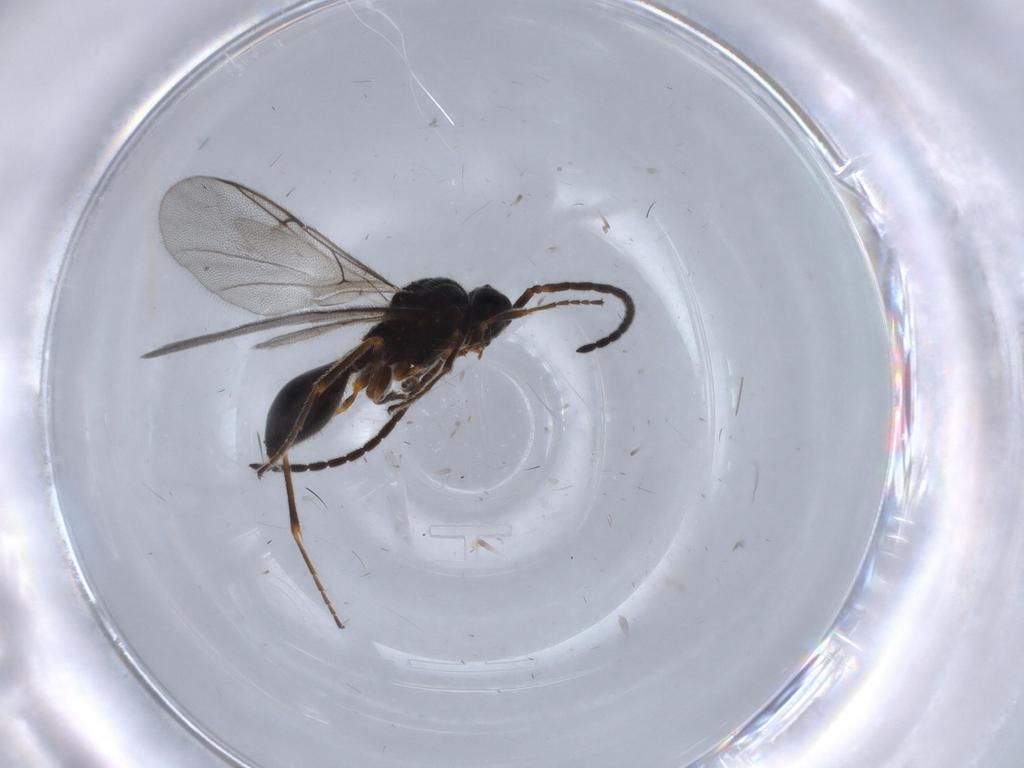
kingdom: Animalia
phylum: Arthropoda
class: Insecta
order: Hymenoptera
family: Diapriidae
